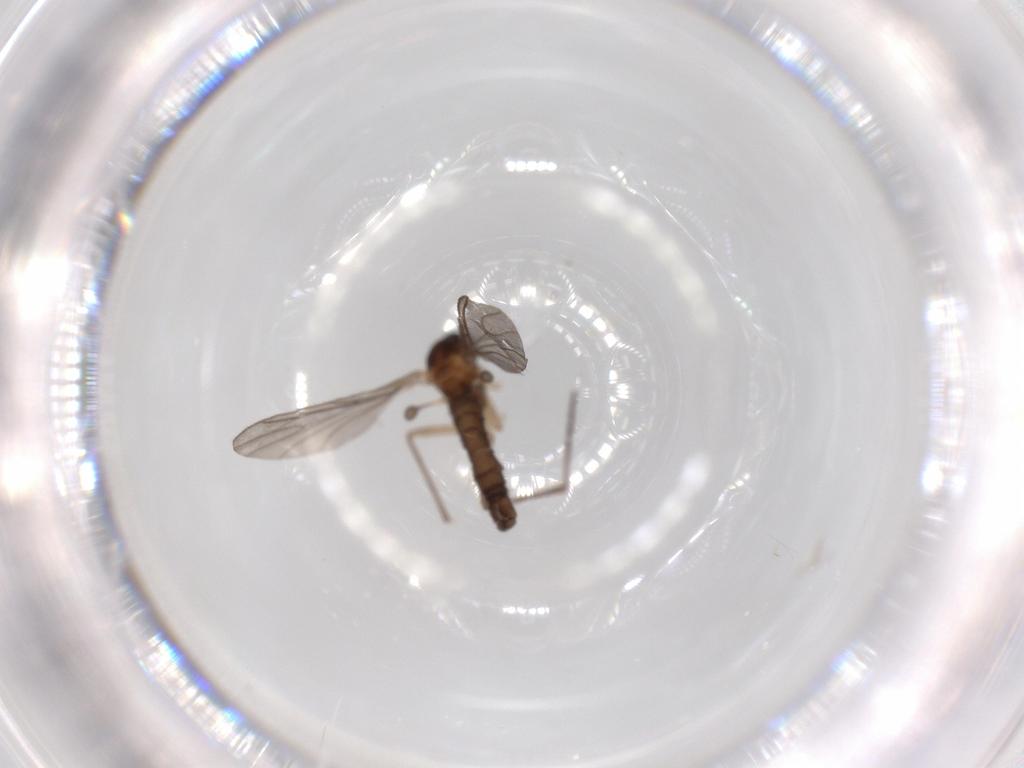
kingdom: Animalia
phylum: Arthropoda
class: Insecta
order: Diptera
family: Sciaridae
